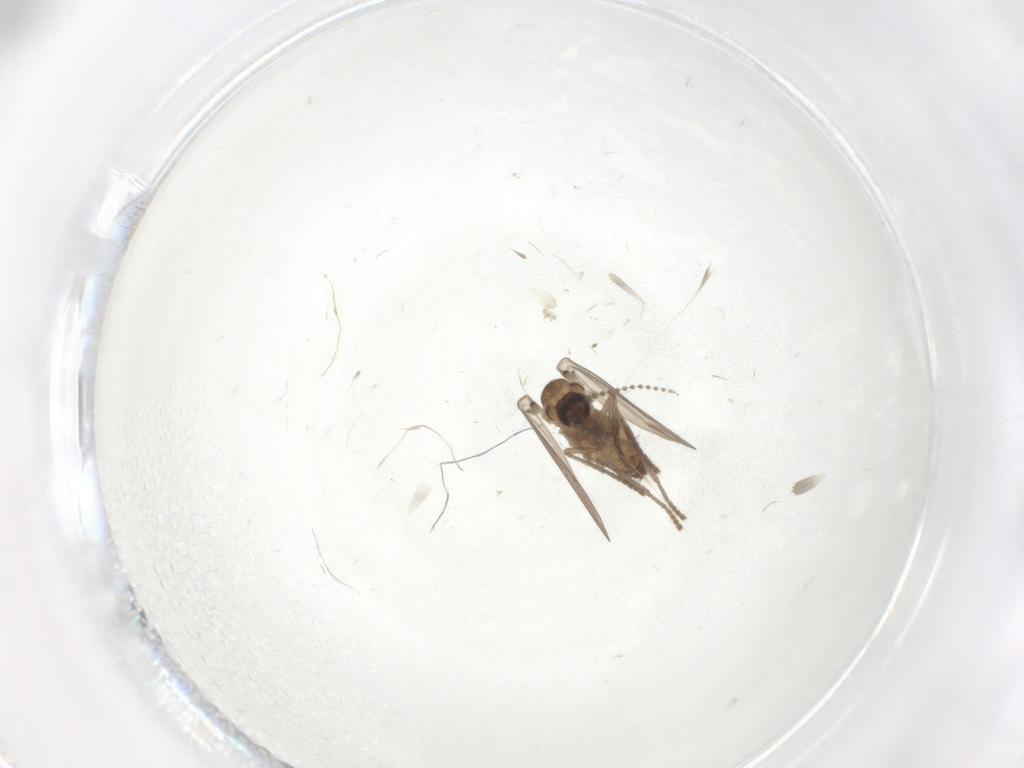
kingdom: Animalia
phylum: Arthropoda
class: Insecta
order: Diptera
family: Psychodidae
